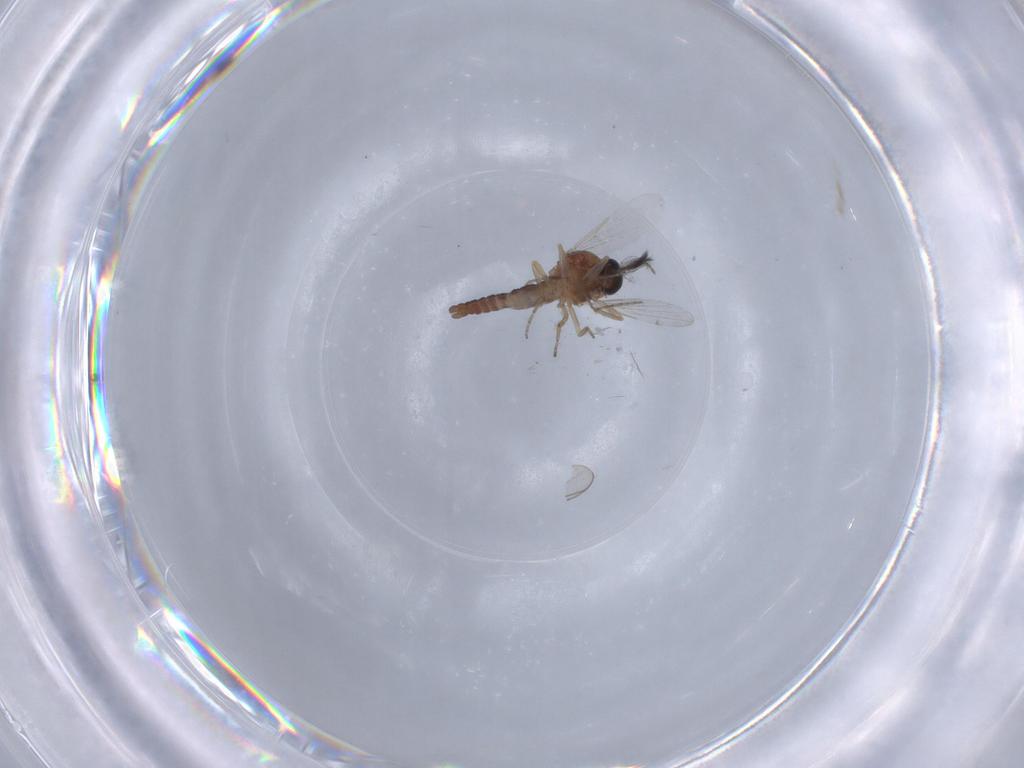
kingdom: Animalia
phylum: Arthropoda
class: Insecta
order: Diptera
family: Ceratopogonidae
